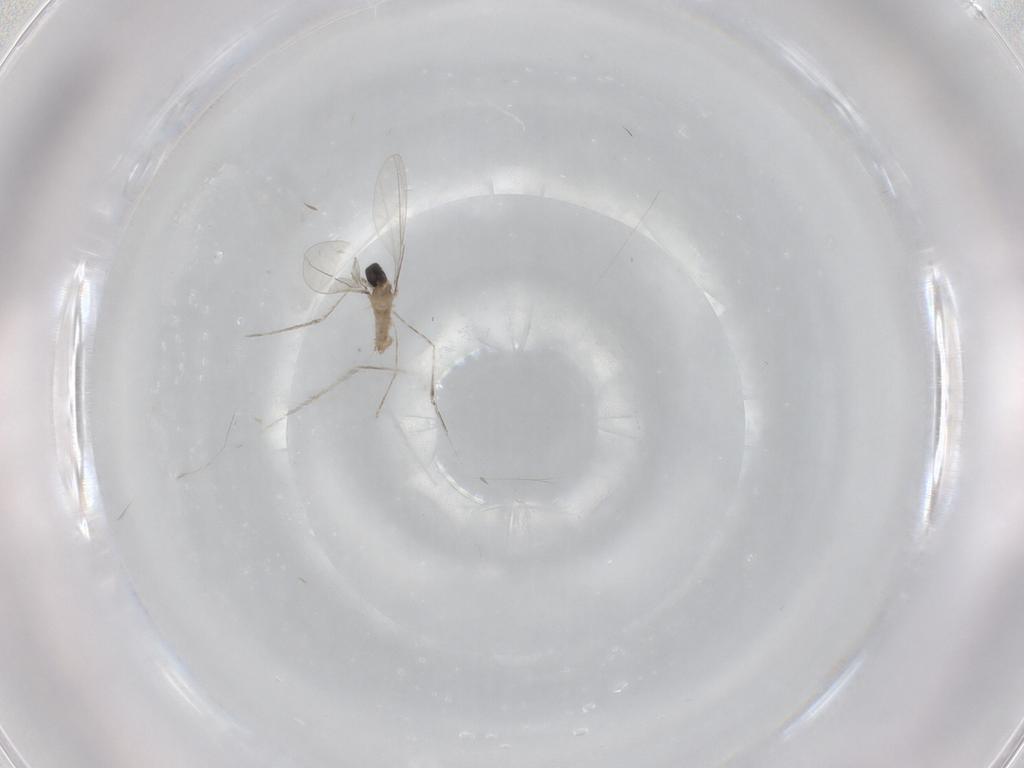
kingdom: Animalia
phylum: Arthropoda
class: Insecta
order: Diptera
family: Cecidomyiidae
